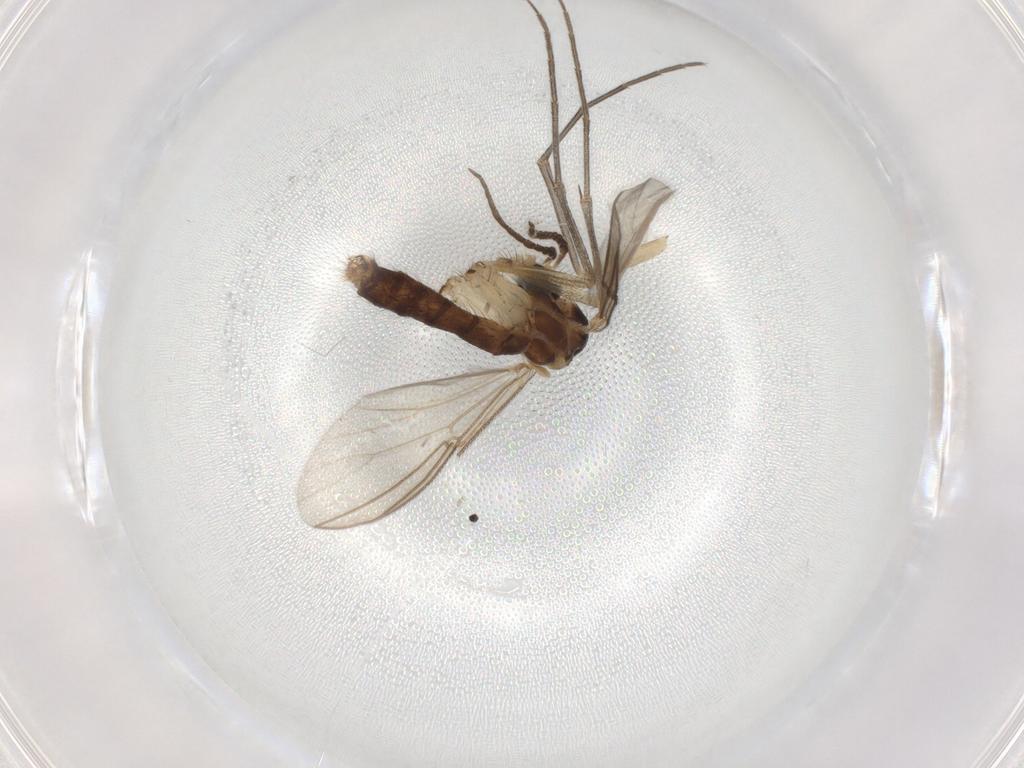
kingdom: Animalia
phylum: Arthropoda
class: Insecta
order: Diptera
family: Mycetophilidae
